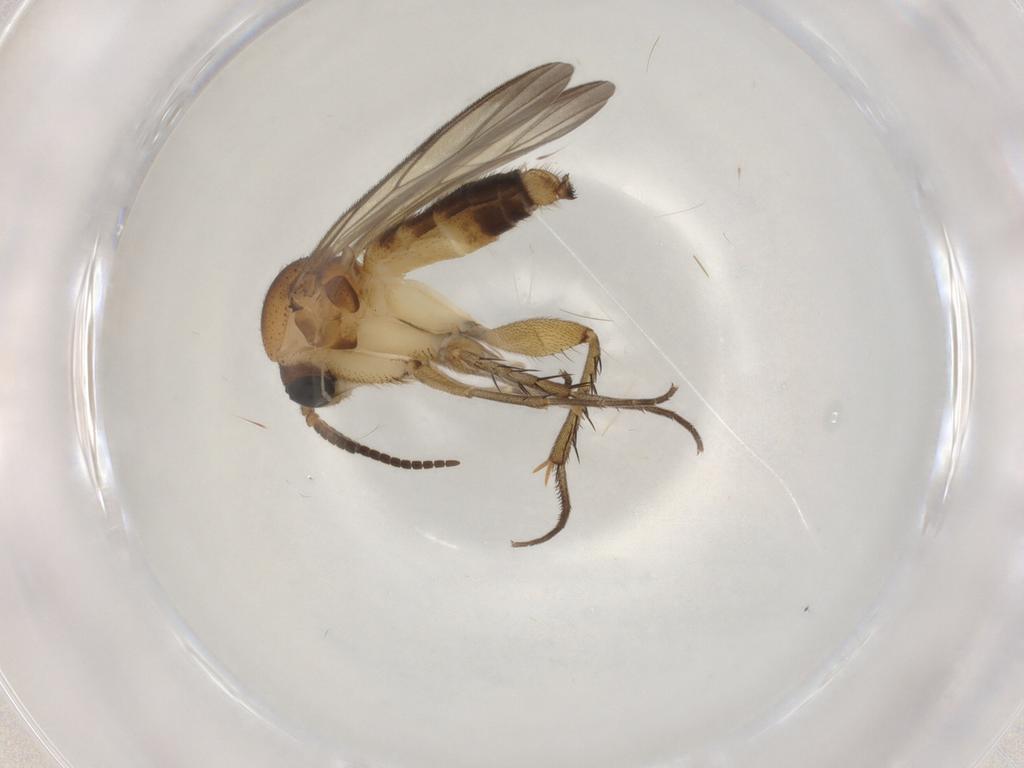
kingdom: Animalia
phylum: Arthropoda
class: Insecta
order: Diptera
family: Mycetophilidae
